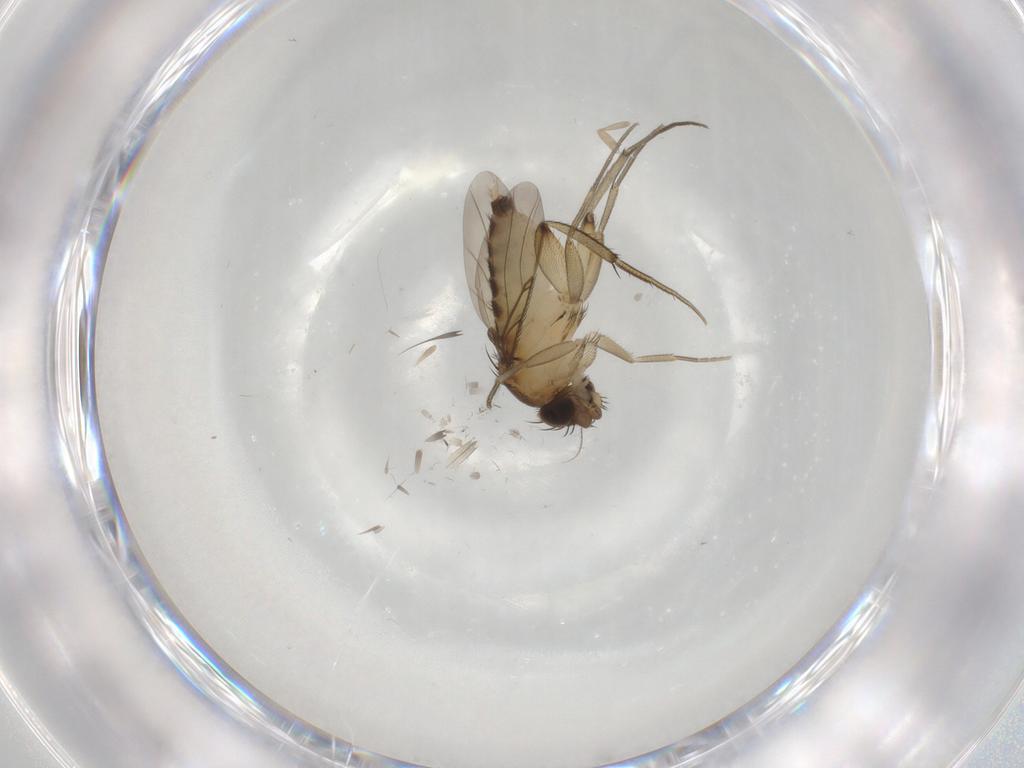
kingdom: Animalia
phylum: Arthropoda
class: Insecta
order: Diptera
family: Phoridae
